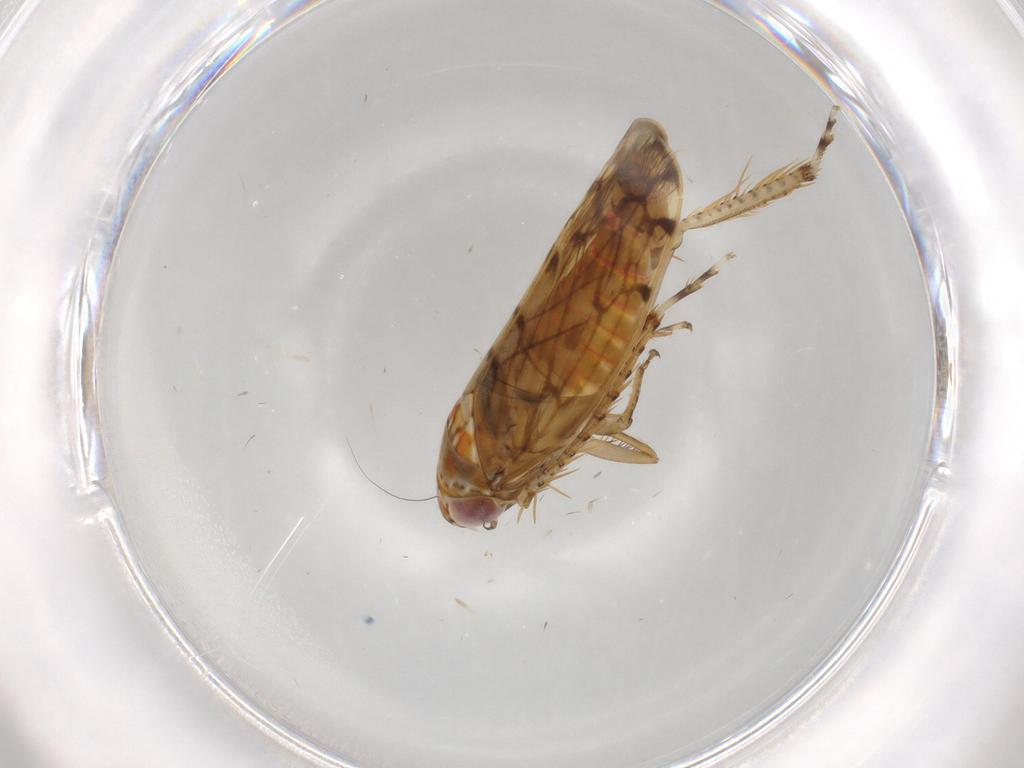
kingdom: Animalia
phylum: Arthropoda
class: Insecta
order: Hemiptera
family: Cicadellidae
